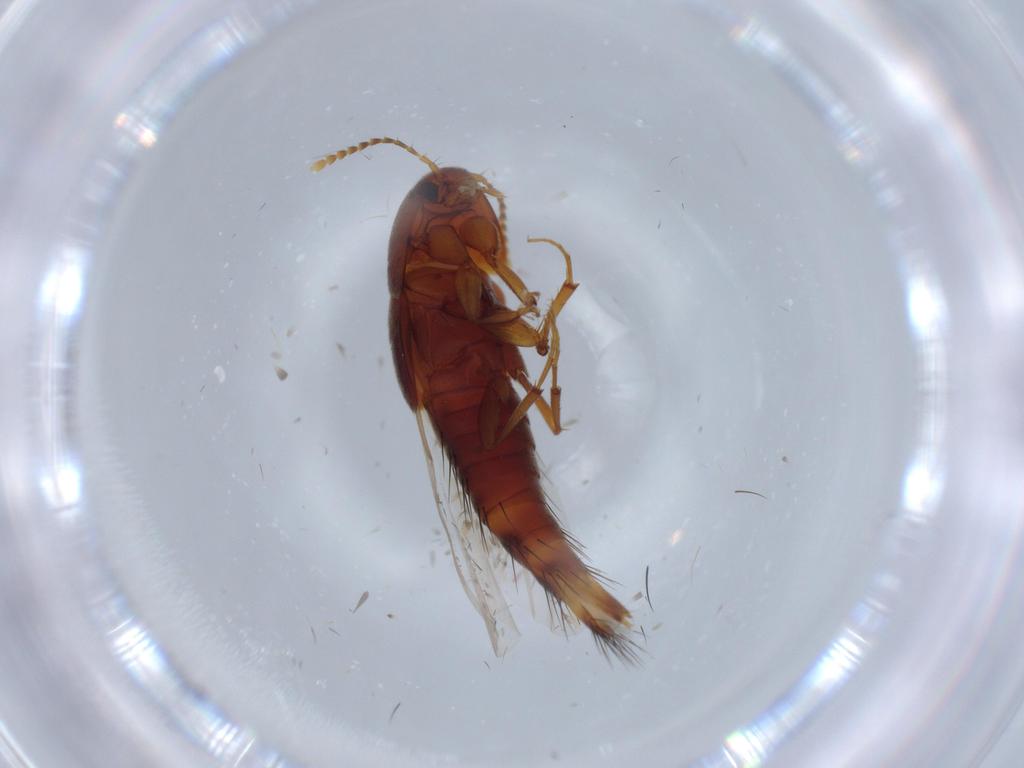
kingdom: Animalia
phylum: Arthropoda
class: Insecta
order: Coleoptera
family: Staphylinidae
